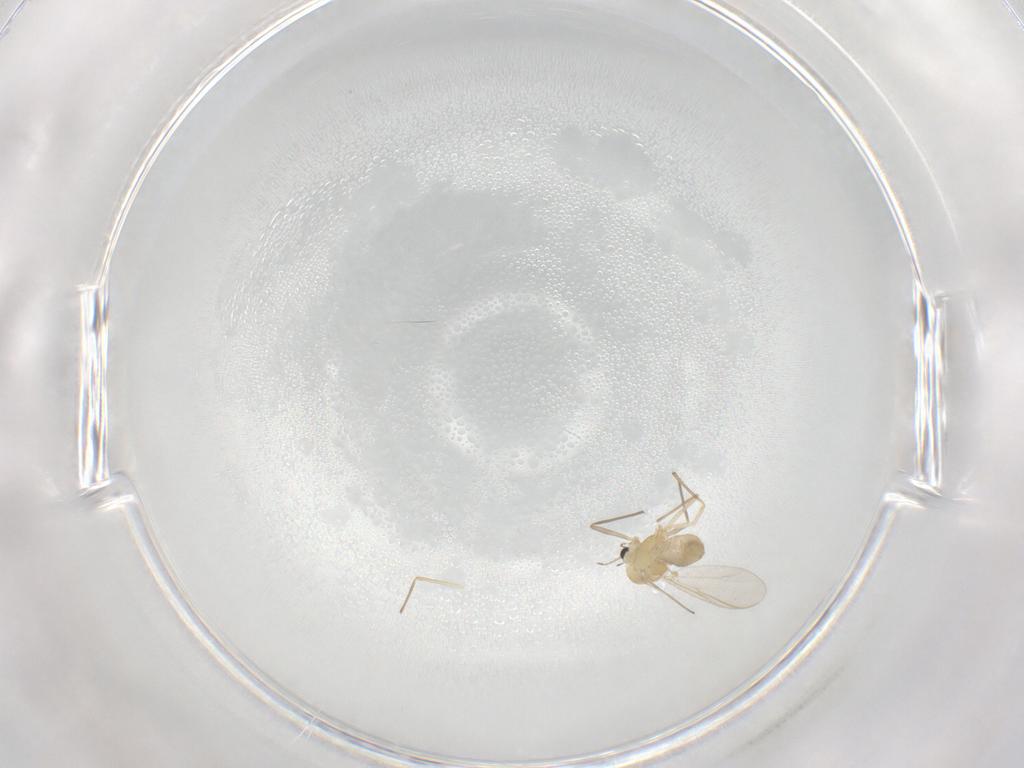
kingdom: Animalia
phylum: Arthropoda
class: Insecta
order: Diptera
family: Chironomidae
